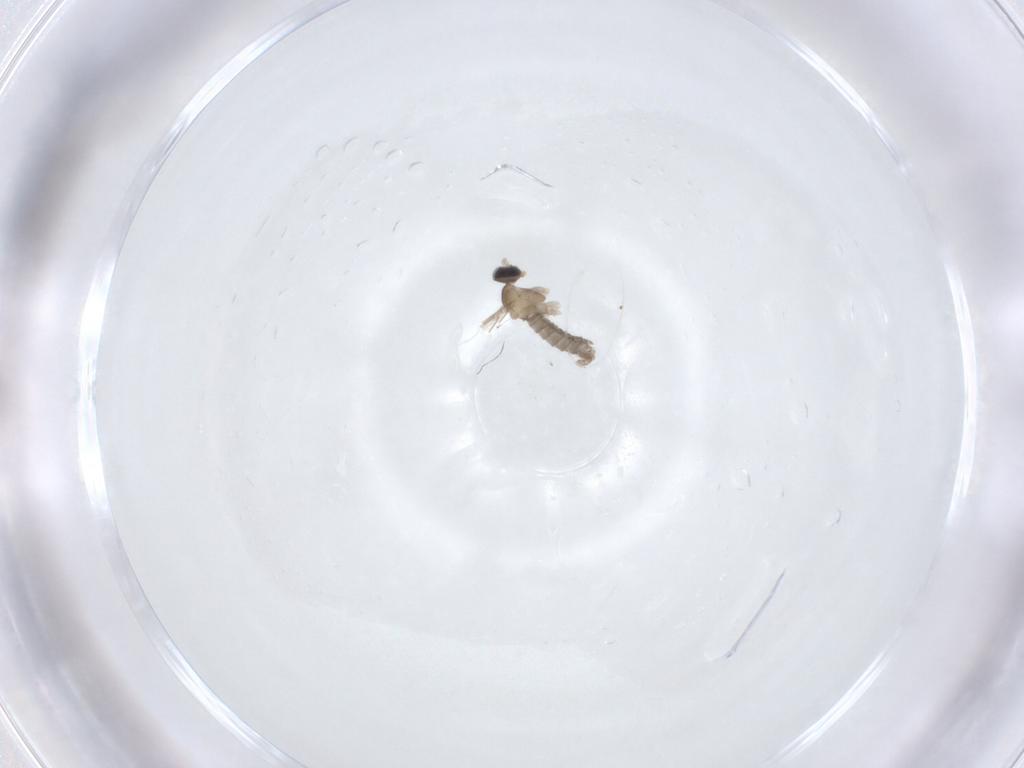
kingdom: Animalia
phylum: Arthropoda
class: Insecta
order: Diptera
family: Cecidomyiidae
